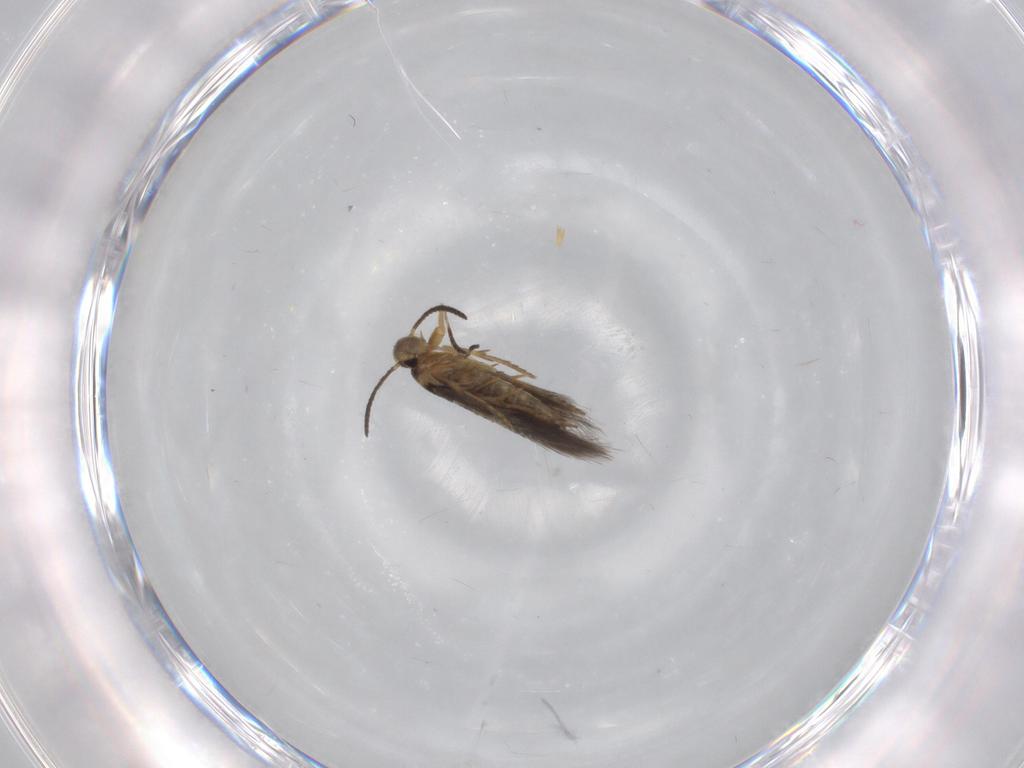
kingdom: Animalia
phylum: Arthropoda
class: Insecta
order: Lepidoptera
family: Heliozelidae
